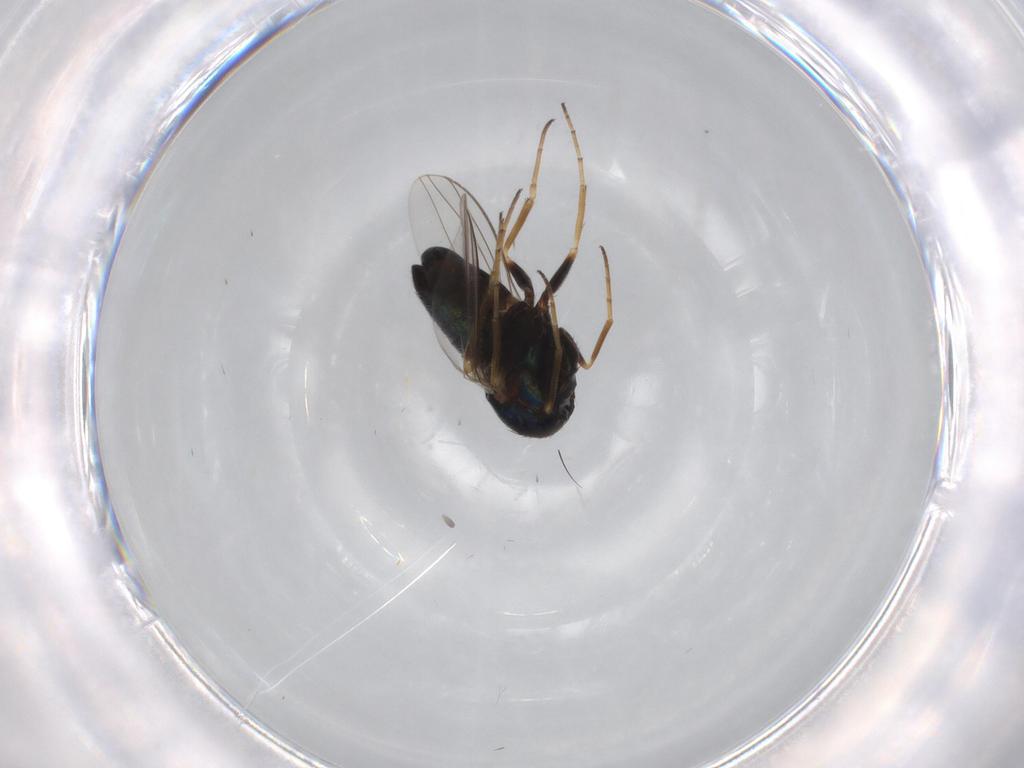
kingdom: Animalia
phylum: Arthropoda
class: Insecta
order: Diptera
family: Dolichopodidae
